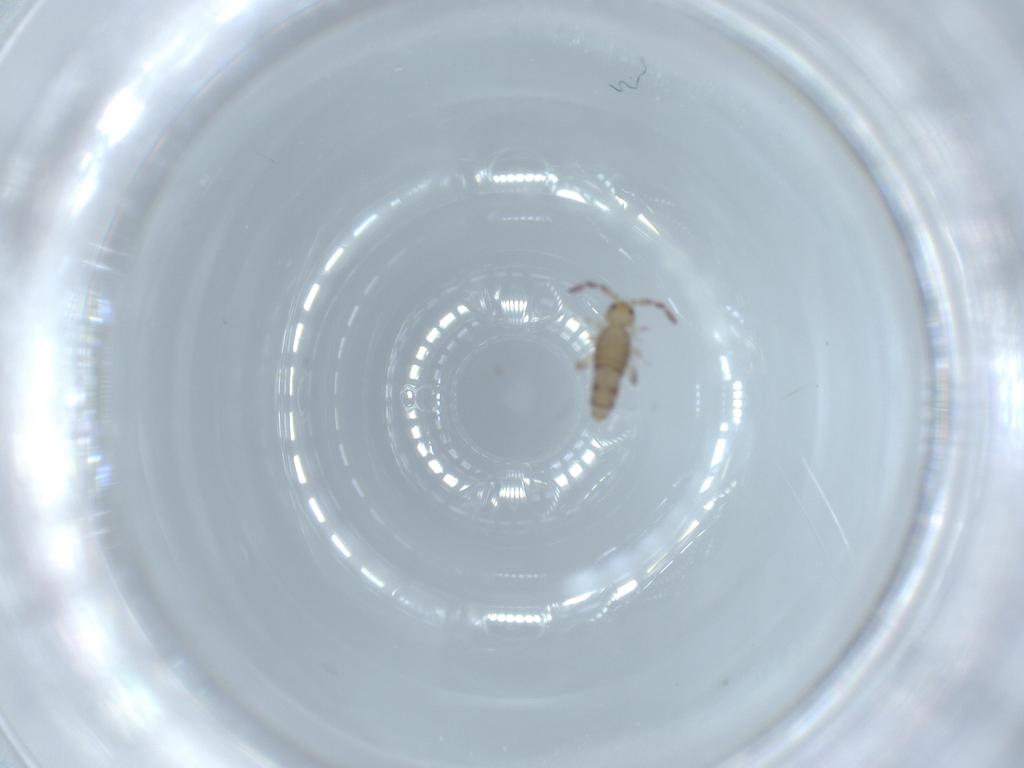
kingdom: Animalia
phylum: Arthropoda
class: Collembola
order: Entomobryomorpha
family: Entomobryidae
